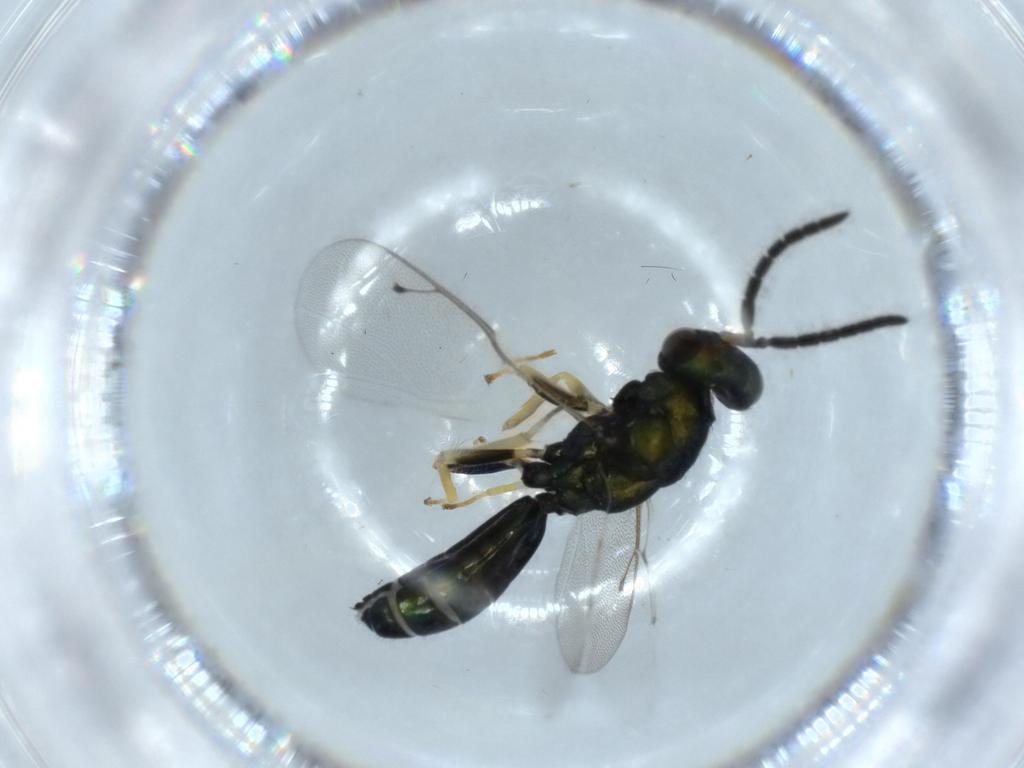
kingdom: Animalia
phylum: Arthropoda
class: Insecta
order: Hymenoptera
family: Pteromalidae
